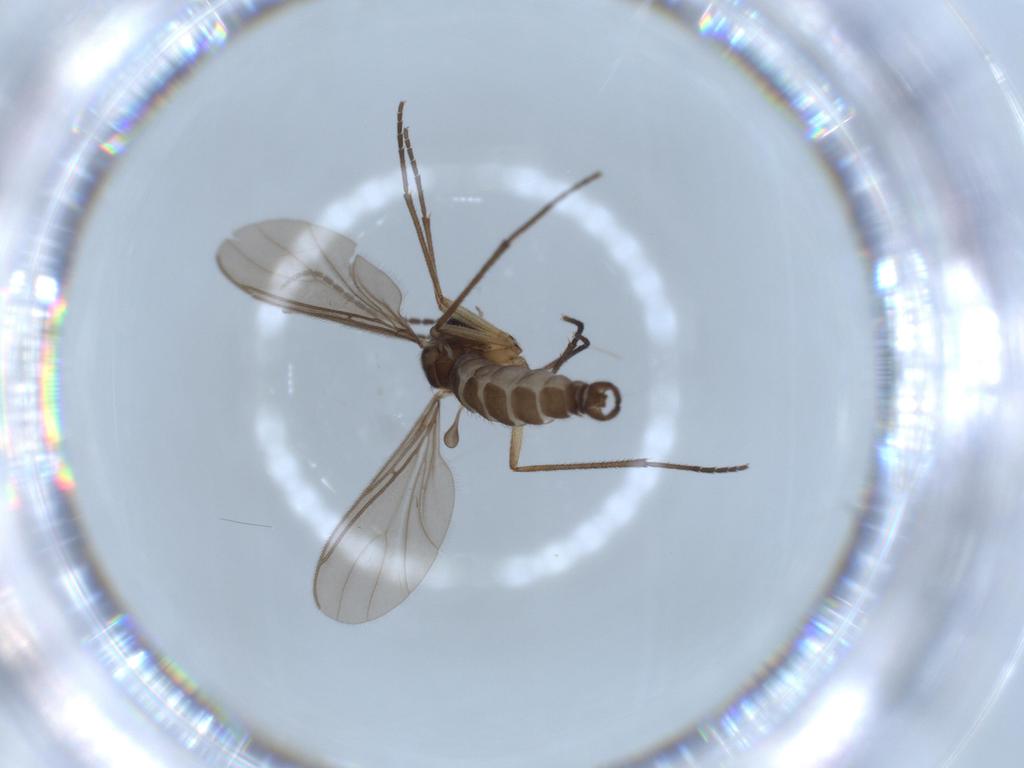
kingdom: Animalia
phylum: Arthropoda
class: Insecta
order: Diptera
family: Sciaridae
